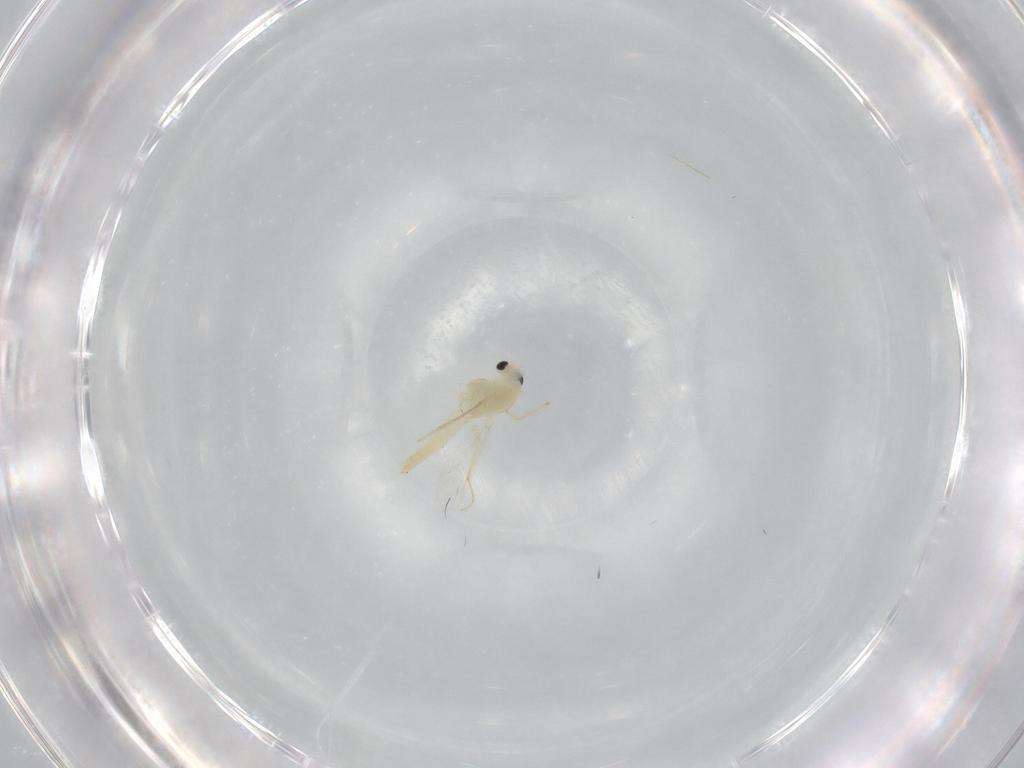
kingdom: Animalia
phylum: Arthropoda
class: Insecta
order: Diptera
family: Chironomidae
